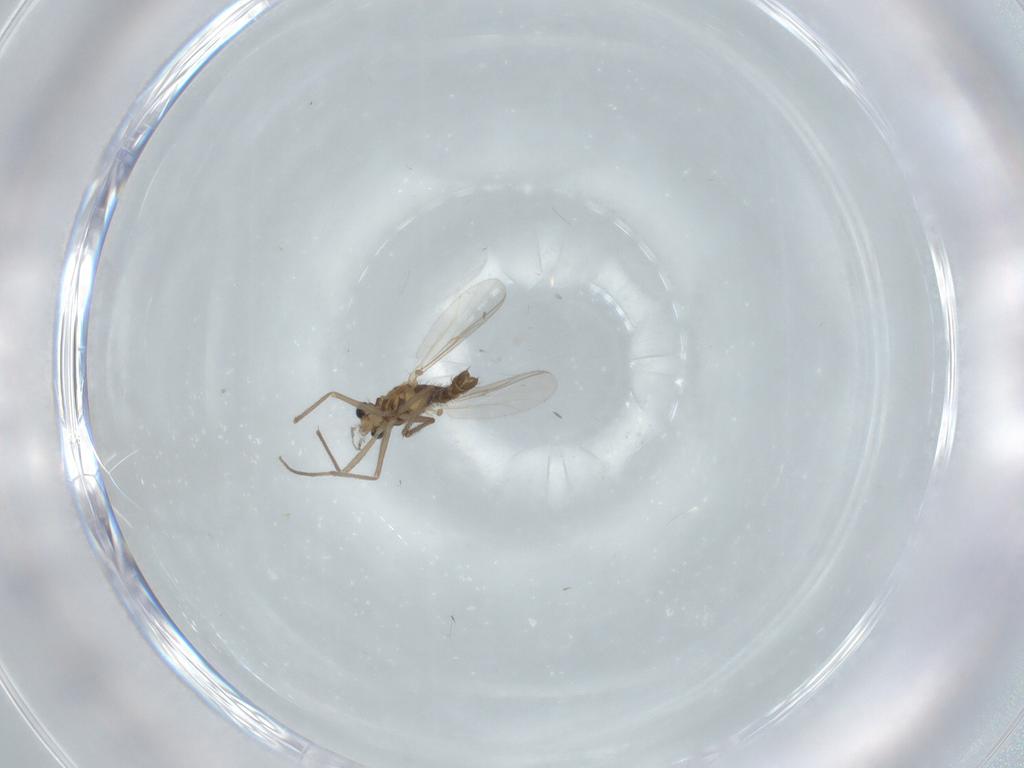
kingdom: Animalia
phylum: Arthropoda
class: Insecta
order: Diptera
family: Chironomidae
